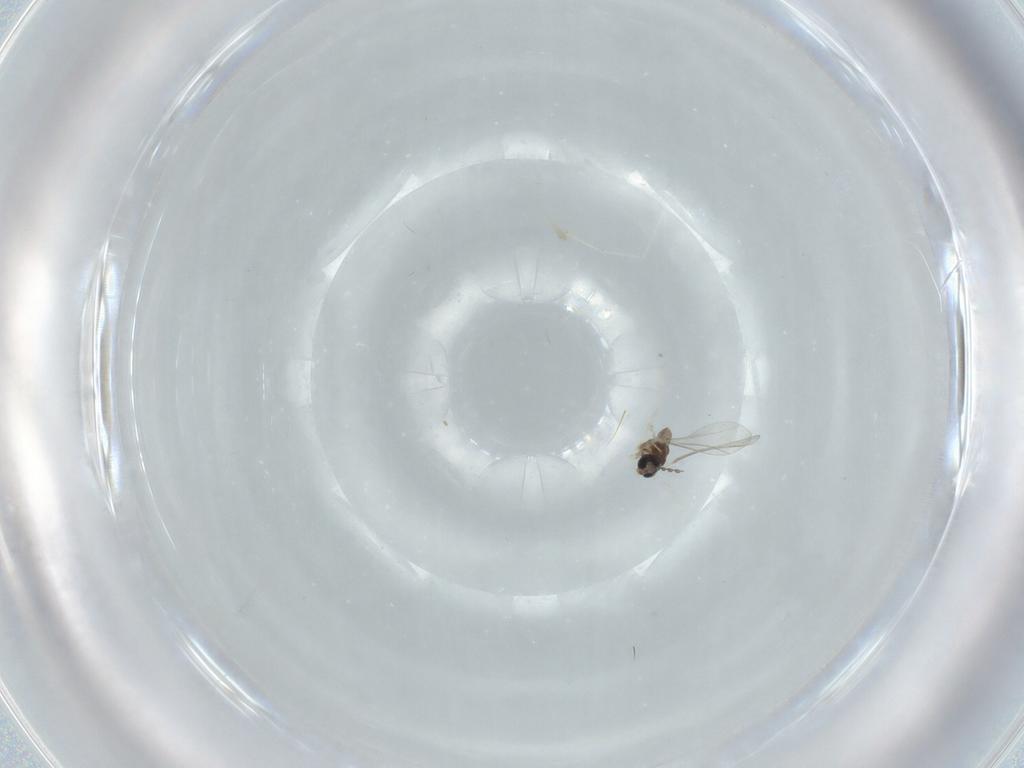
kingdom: Animalia
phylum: Arthropoda
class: Insecta
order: Diptera
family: Cecidomyiidae
